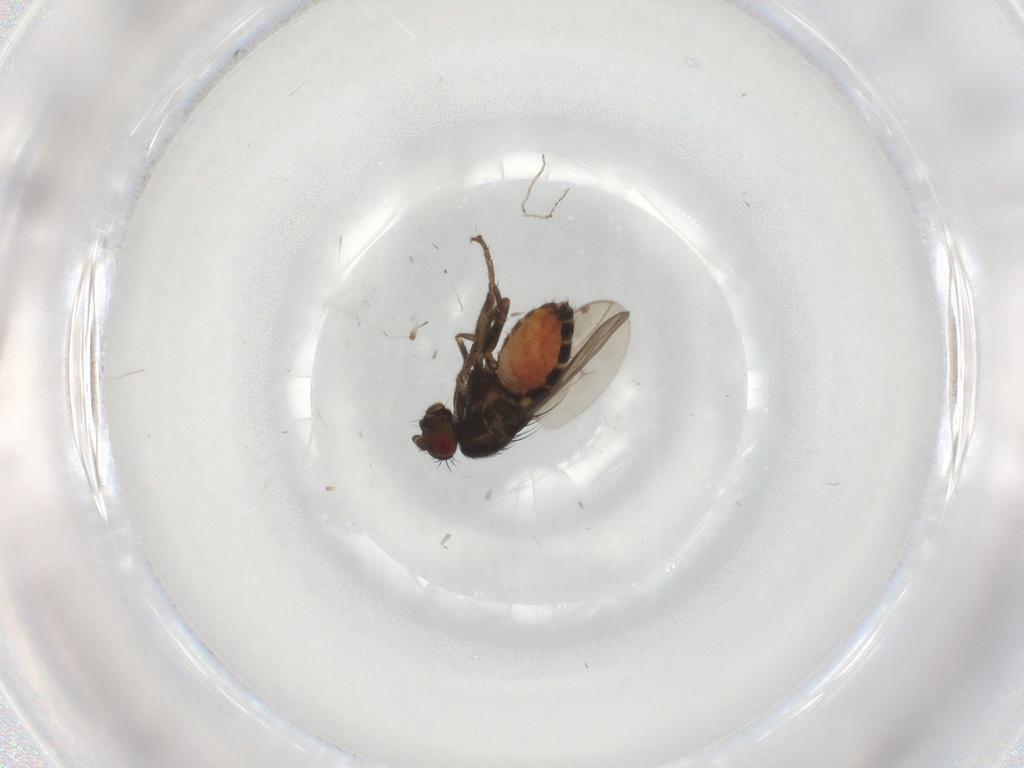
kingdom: Animalia
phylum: Arthropoda
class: Insecta
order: Diptera
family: Sphaeroceridae
